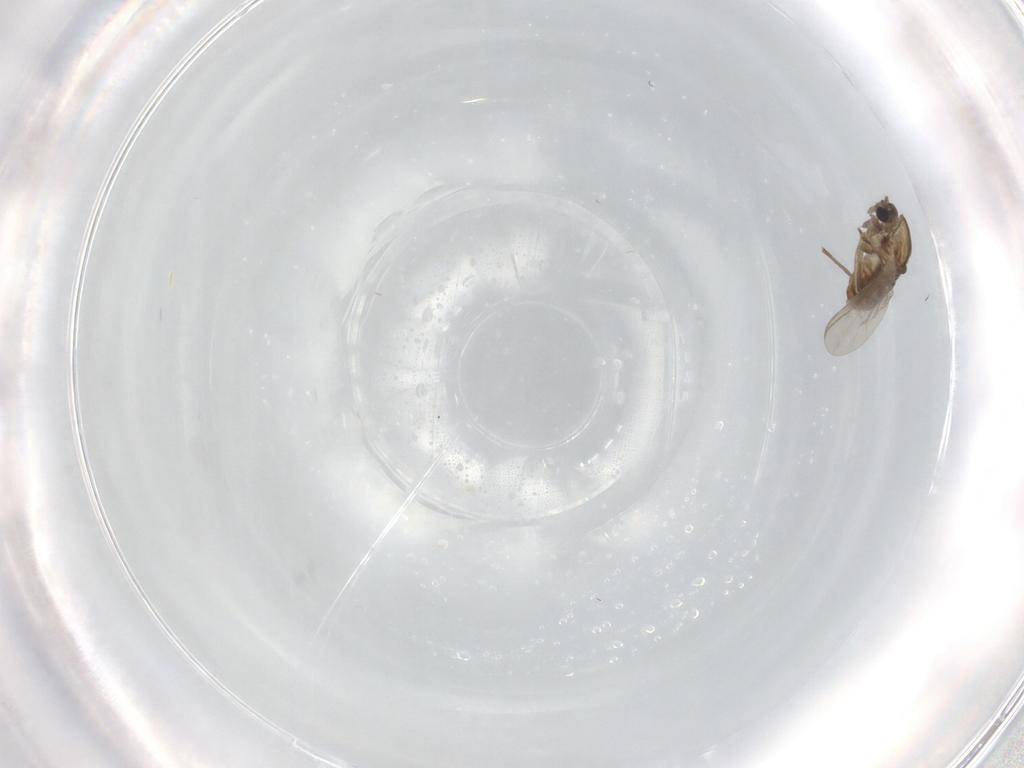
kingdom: Animalia
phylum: Arthropoda
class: Insecta
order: Diptera
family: Chironomidae
